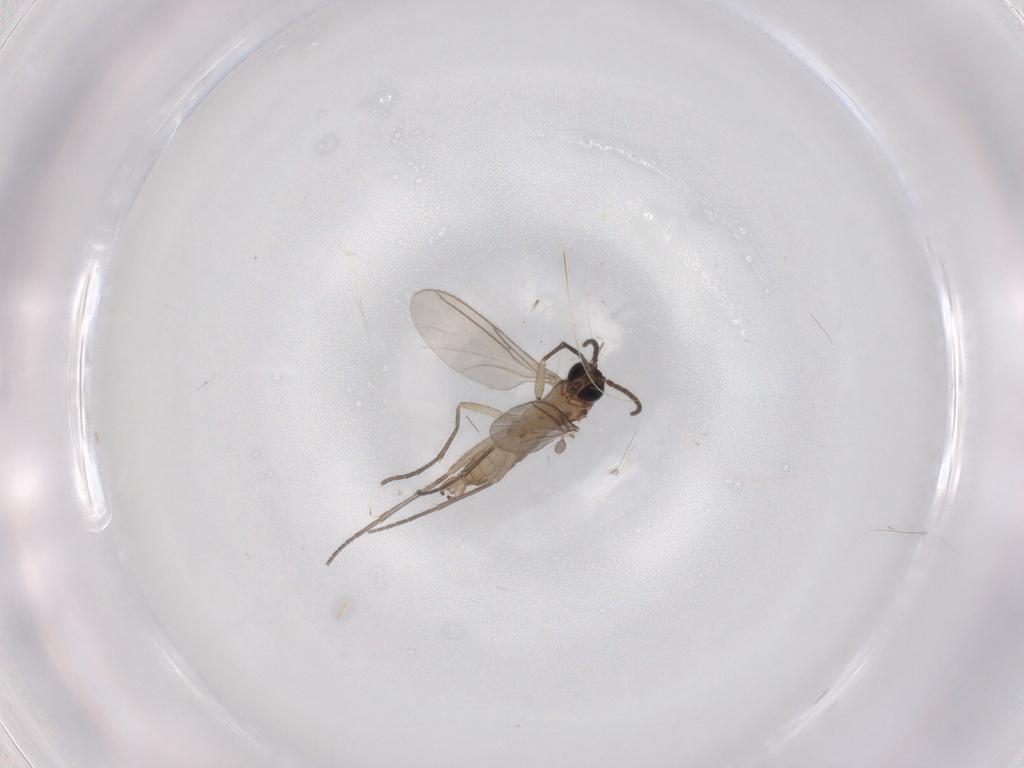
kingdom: Animalia
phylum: Arthropoda
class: Insecta
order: Diptera
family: Sciaridae
